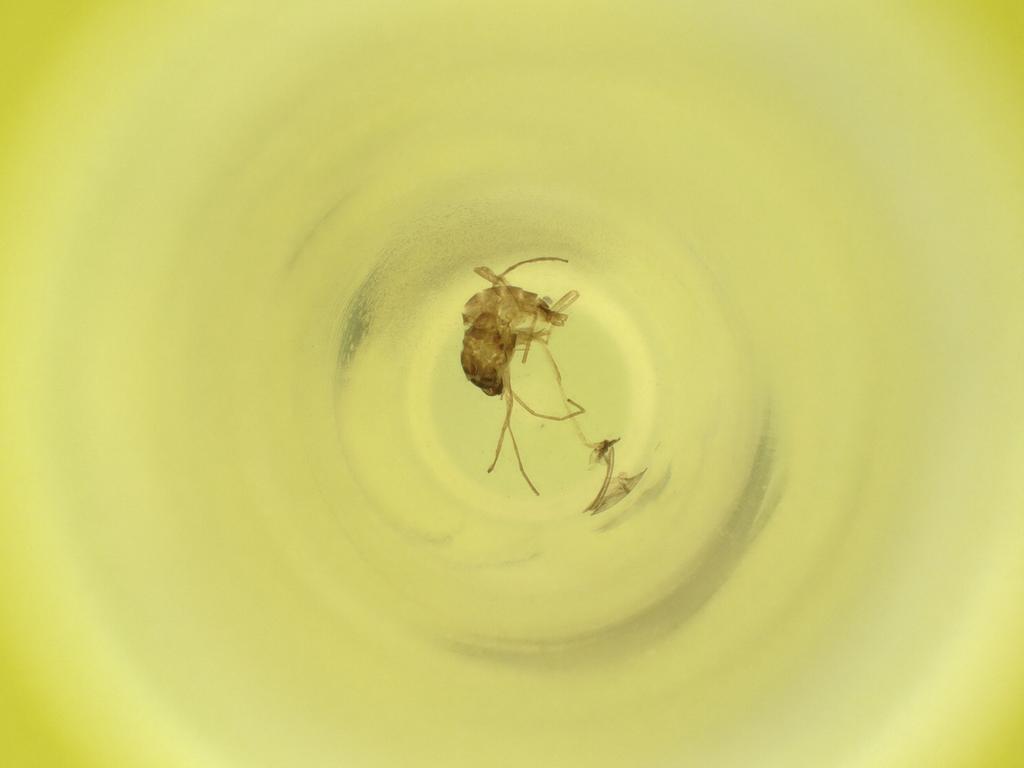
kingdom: Animalia
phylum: Arthropoda
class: Insecta
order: Diptera
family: Cecidomyiidae
